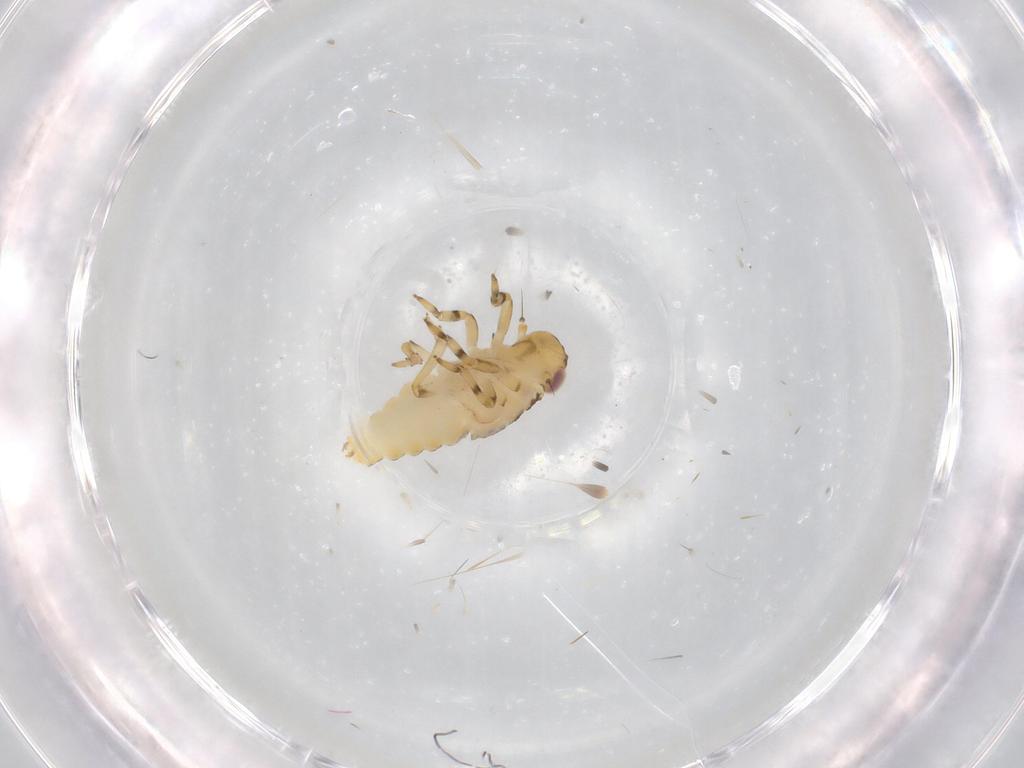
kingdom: Animalia
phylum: Arthropoda
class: Insecta
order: Hemiptera
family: Issidae
